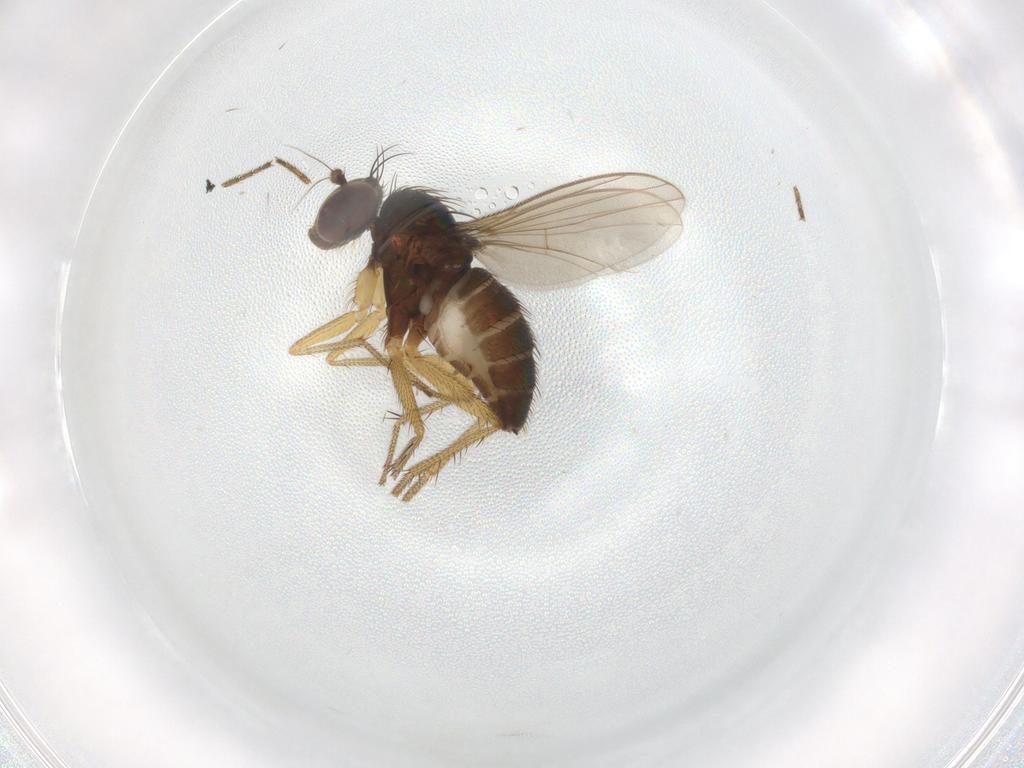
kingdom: Animalia
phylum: Arthropoda
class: Insecta
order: Diptera
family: Dolichopodidae
